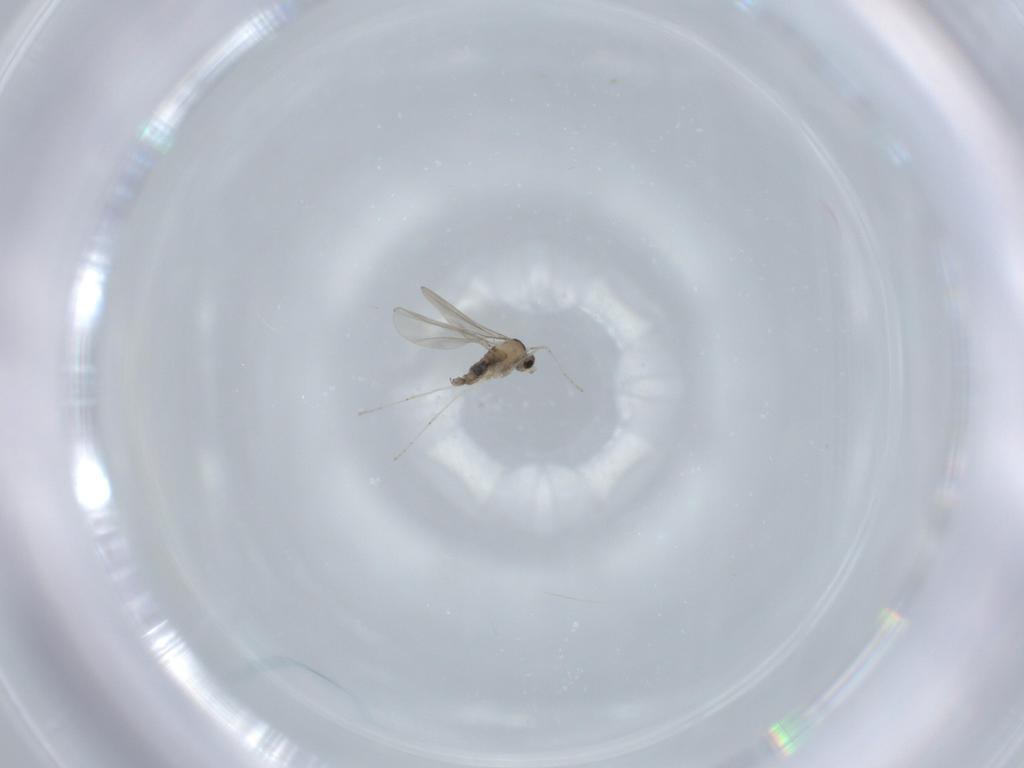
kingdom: Animalia
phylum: Arthropoda
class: Insecta
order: Diptera
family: Cecidomyiidae
